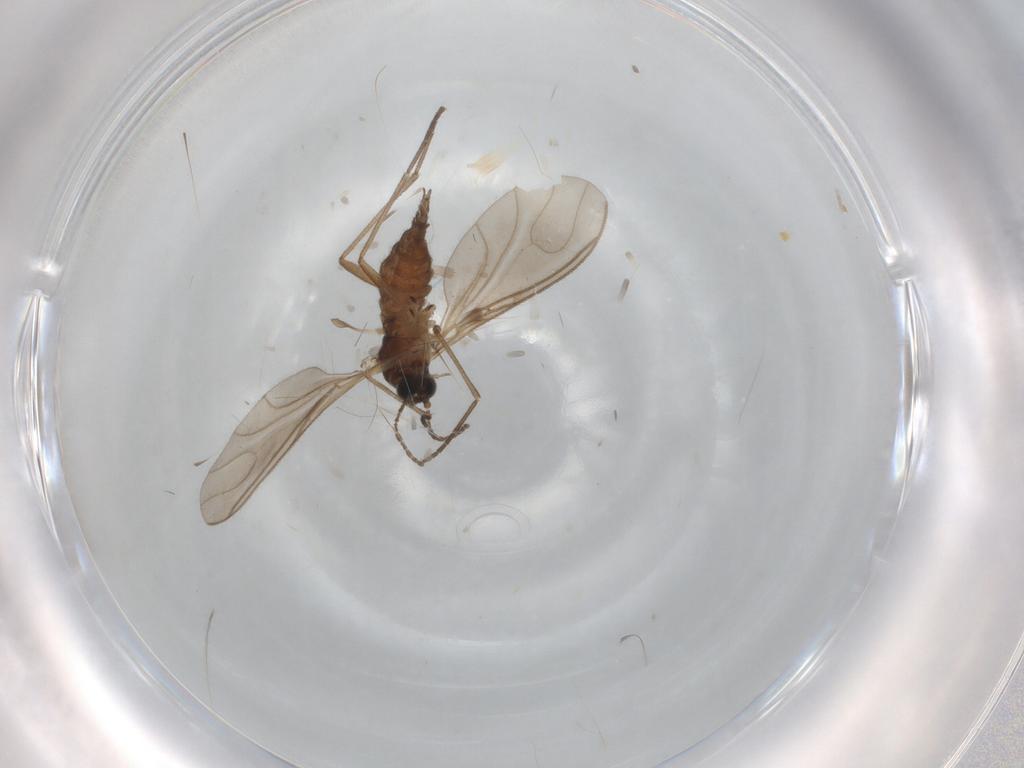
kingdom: Animalia
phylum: Arthropoda
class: Insecta
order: Diptera
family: Sciaridae
